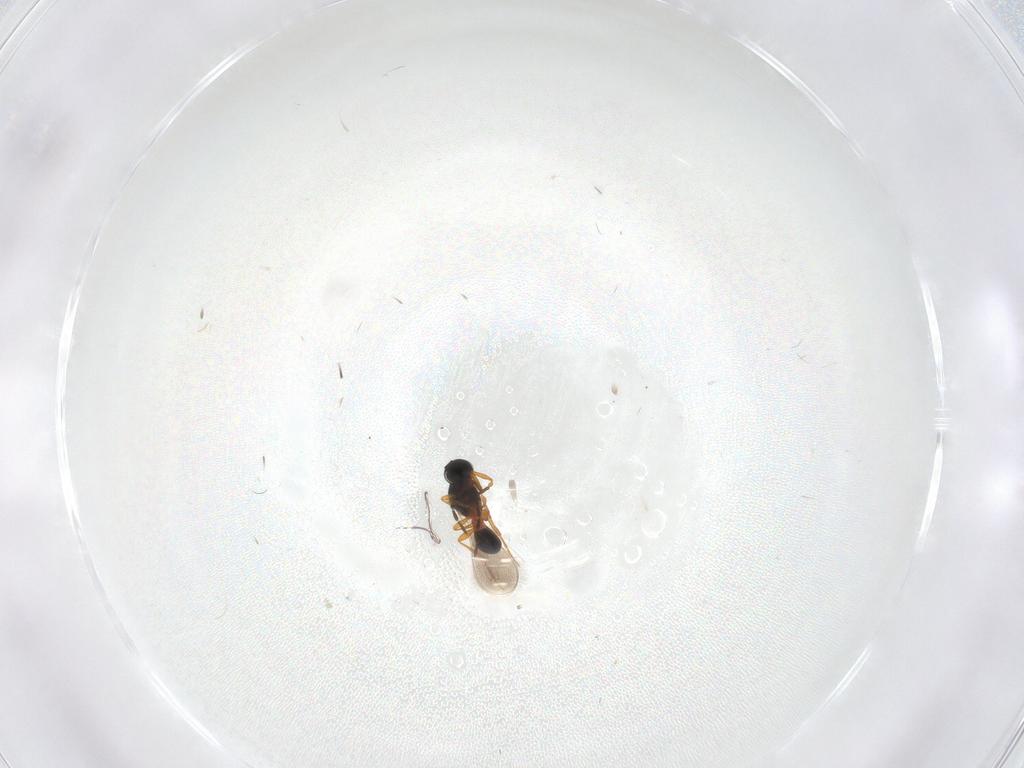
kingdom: Animalia
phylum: Arthropoda
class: Insecta
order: Hymenoptera
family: Platygastridae
